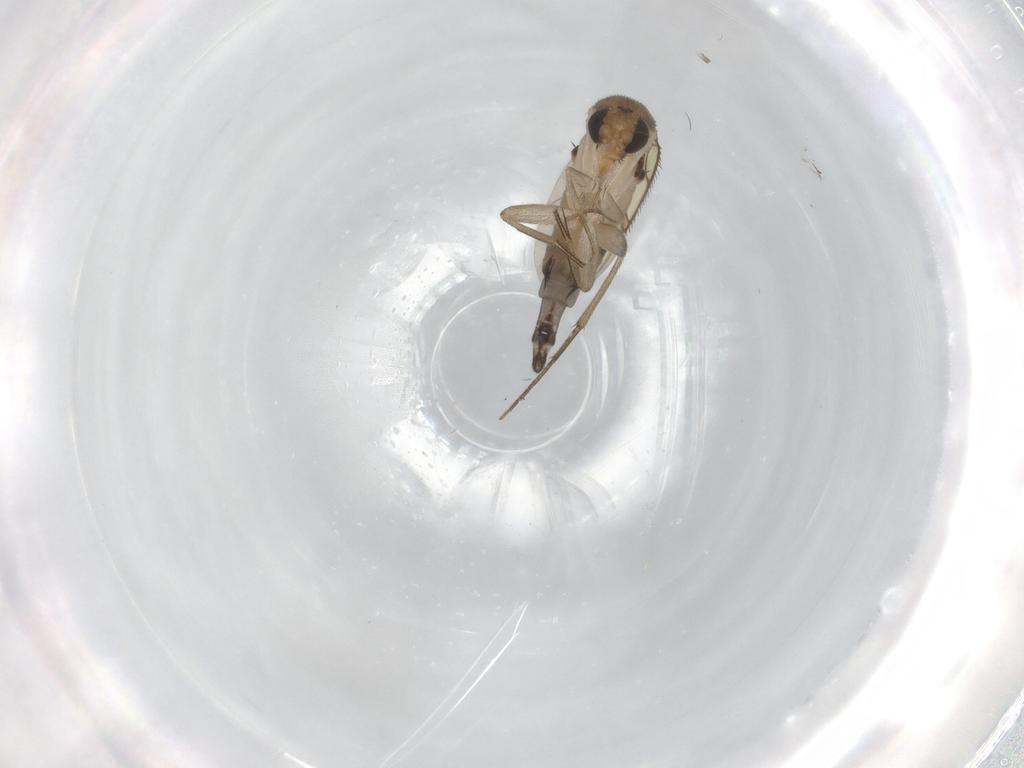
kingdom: Animalia
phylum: Arthropoda
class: Insecta
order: Diptera
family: Phoridae
